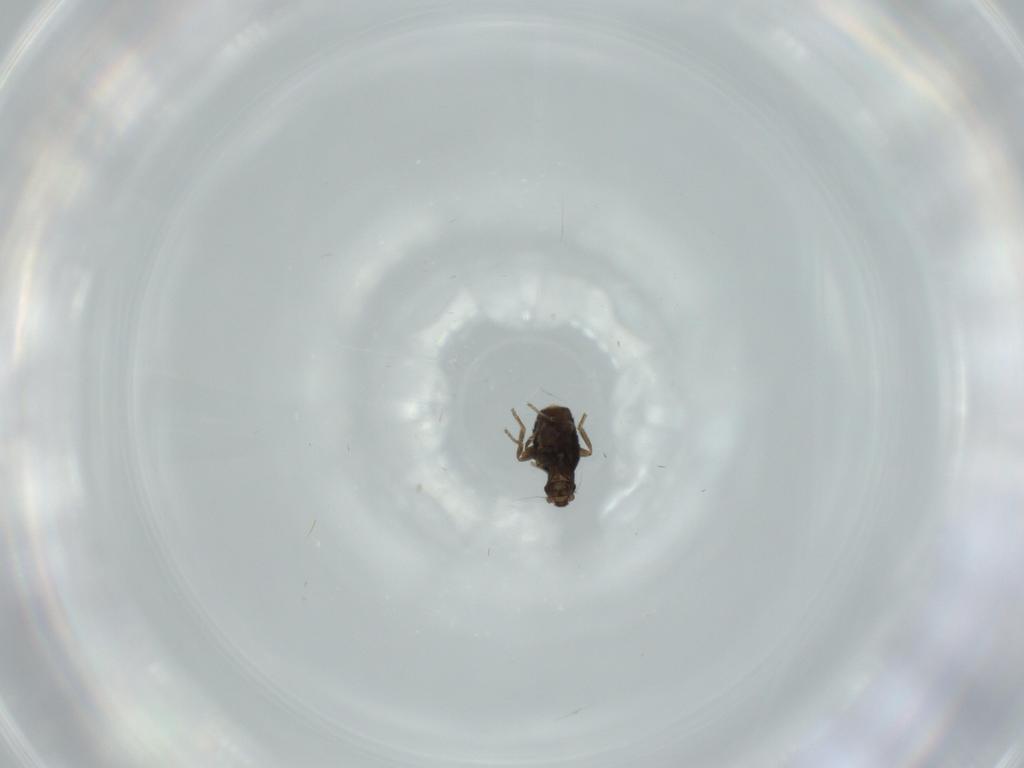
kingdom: Animalia
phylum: Arthropoda
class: Insecta
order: Diptera
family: Phoridae
